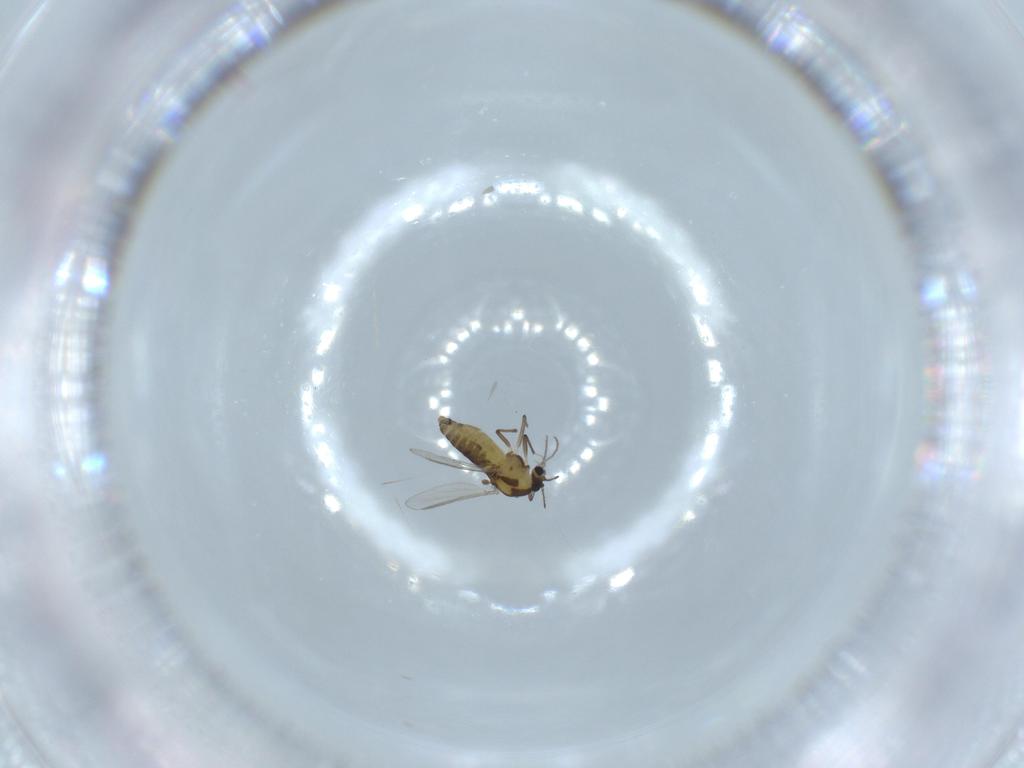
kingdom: Animalia
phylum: Arthropoda
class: Insecta
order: Diptera
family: Chironomidae
